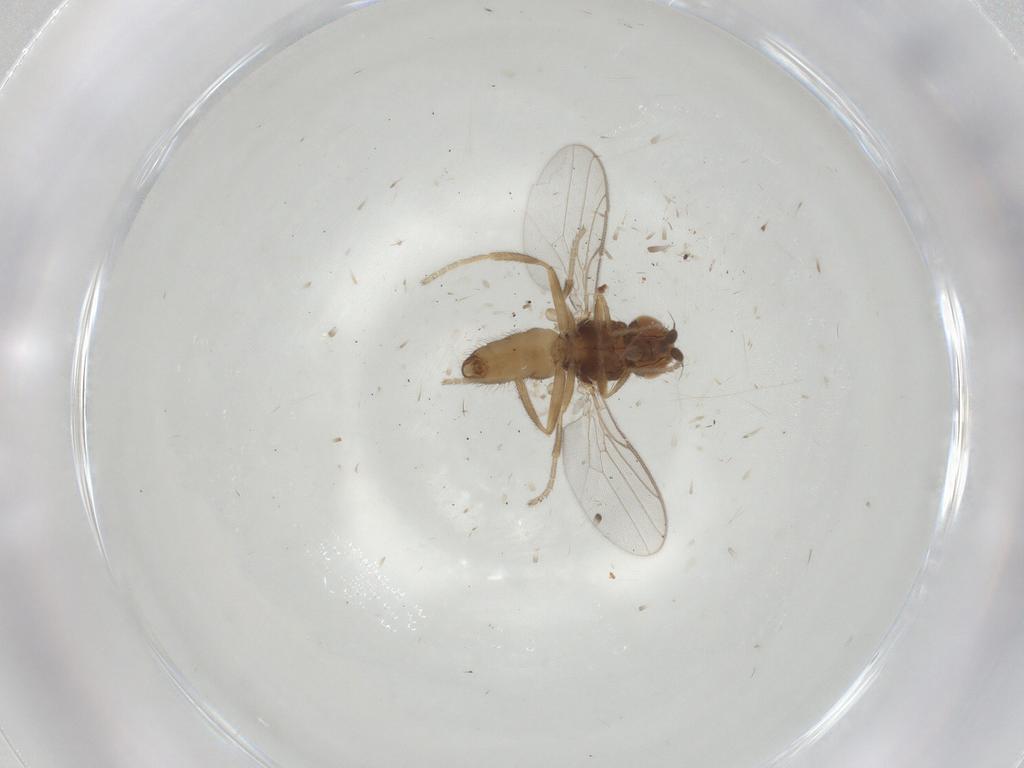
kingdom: Animalia
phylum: Arthropoda
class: Insecta
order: Diptera
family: Chloropidae
